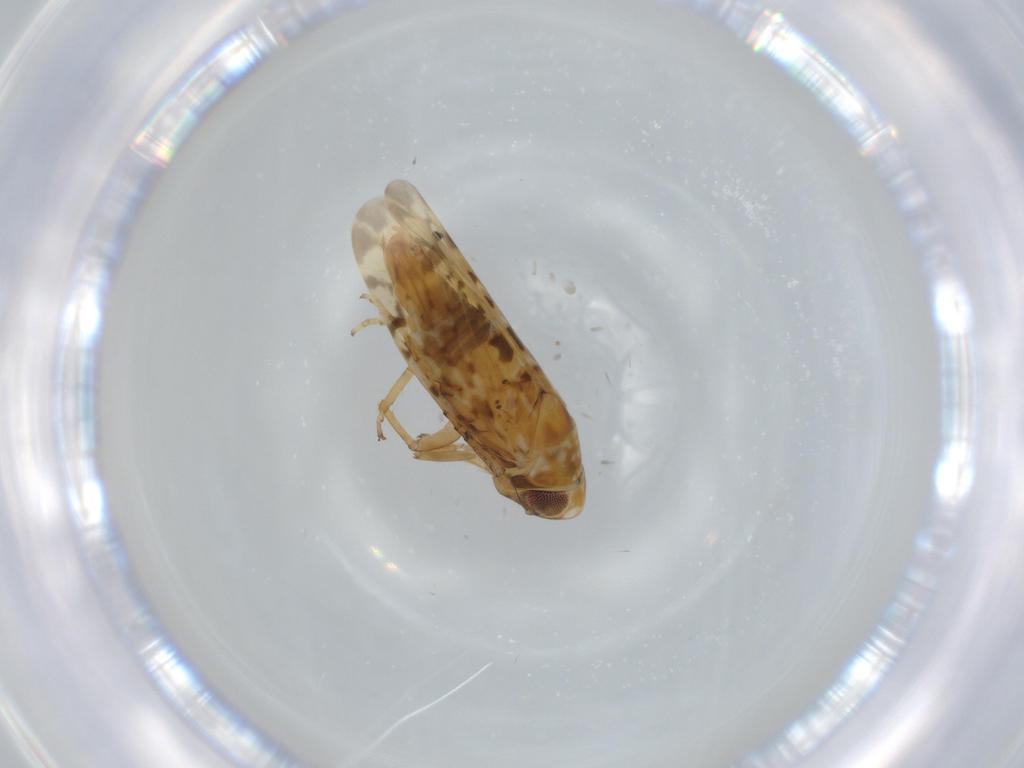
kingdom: Animalia
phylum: Arthropoda
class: Insecta
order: Hemiptera
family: Cicadellidae
